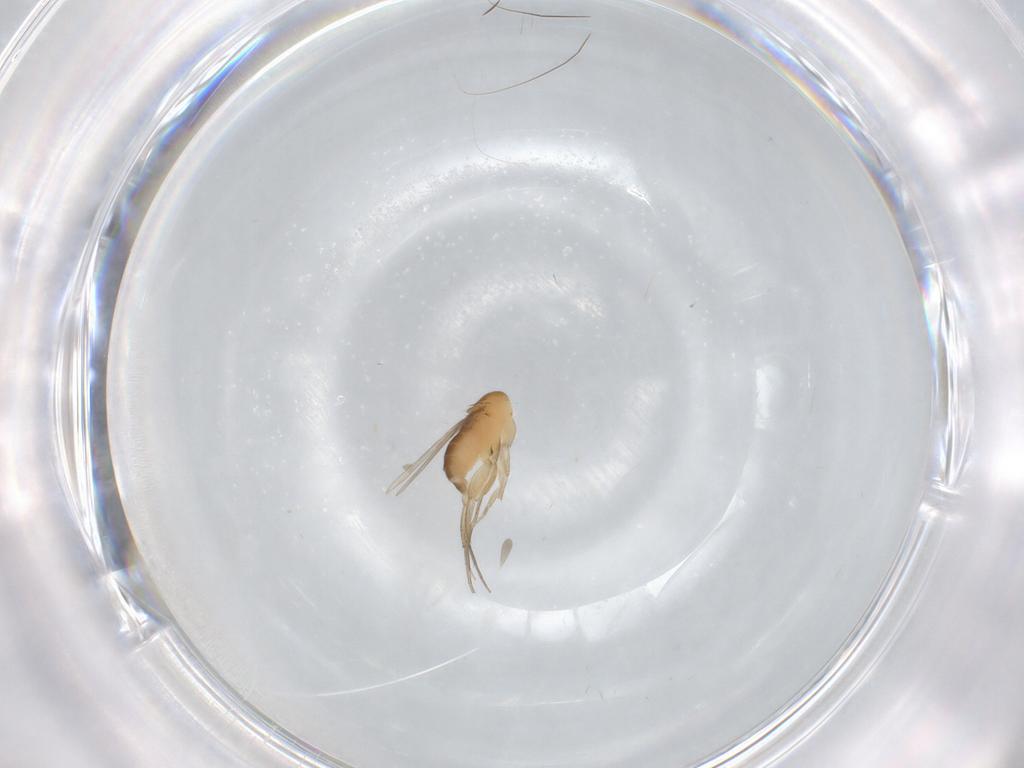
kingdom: Animalia
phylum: Arthropoda
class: Insecta
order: Diptera
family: Phoridae
